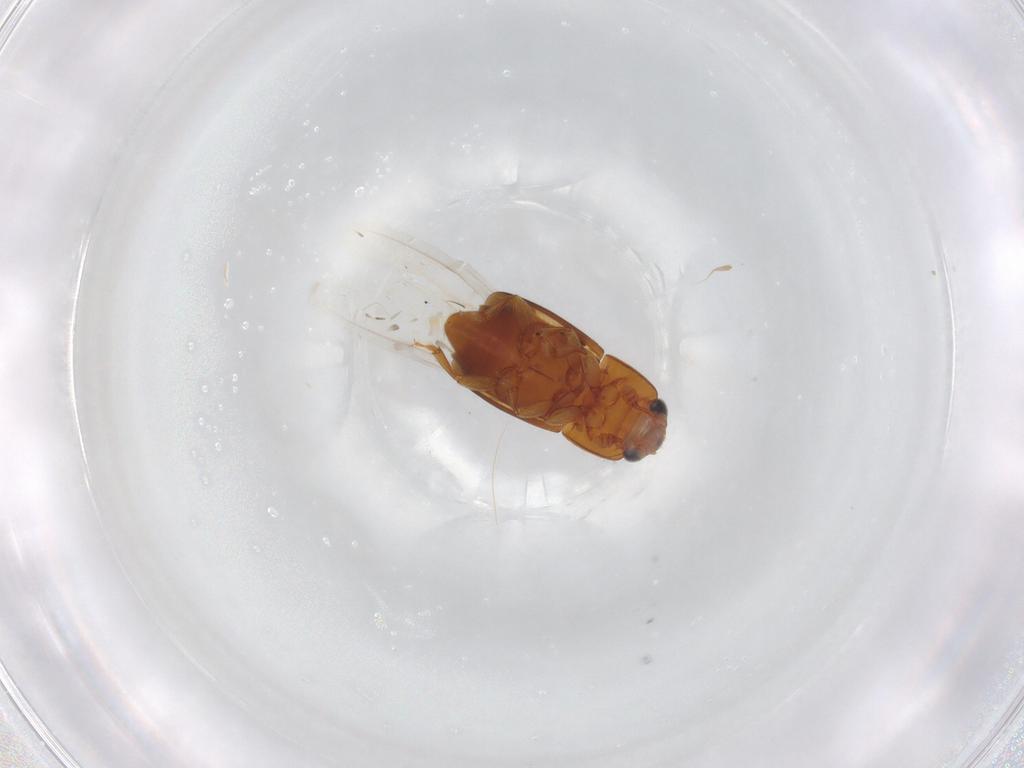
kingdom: Animalia
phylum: Arthropoda
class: Insecta
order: Coleoptera
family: Nitidulidae
